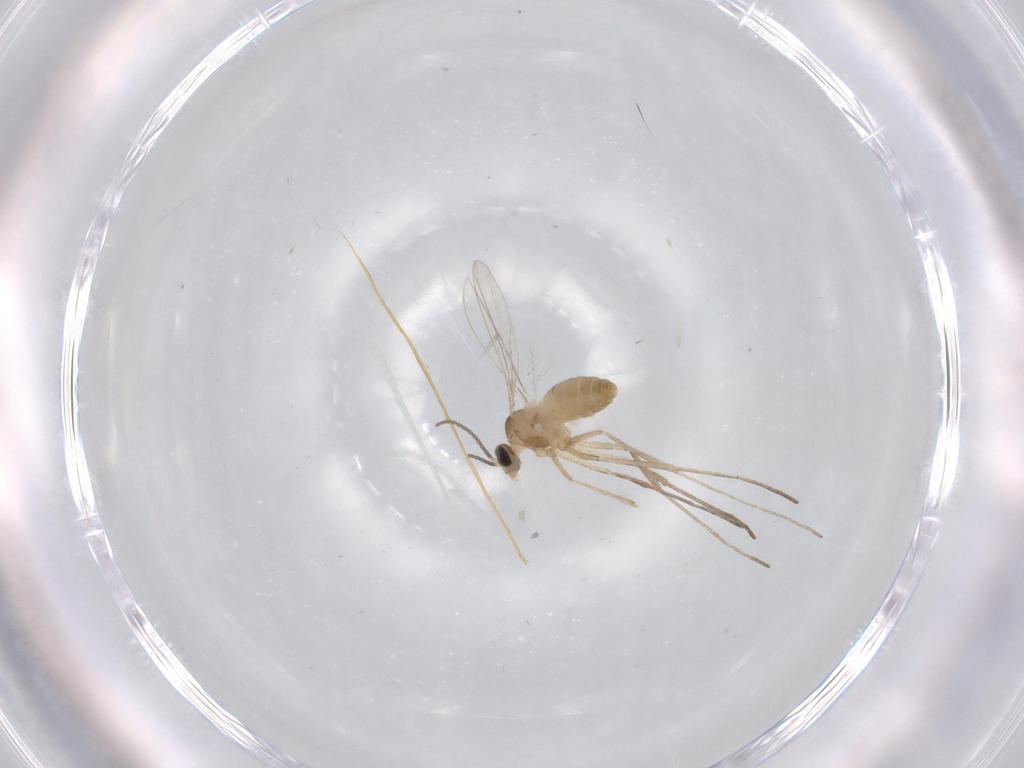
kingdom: Animalia
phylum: Arthropoda
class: Insecta
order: Diptera
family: Cecidomyiidae
